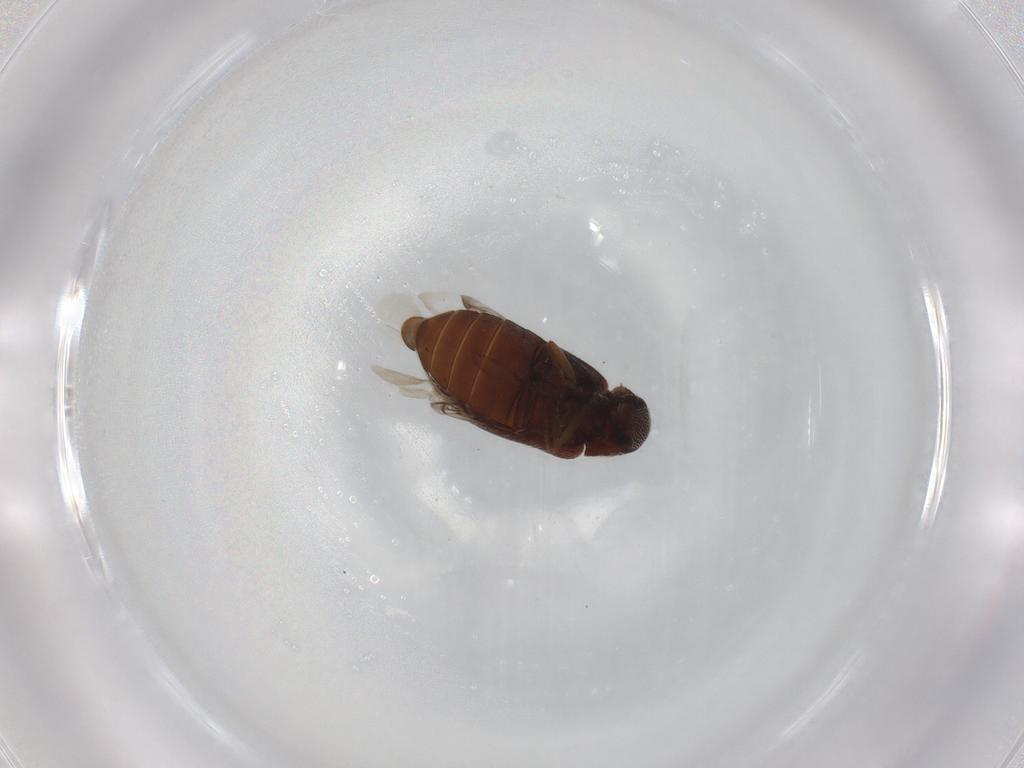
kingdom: Animalia
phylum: Arthropoda
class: Insecta
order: Coleoptera
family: Rhadalidae
